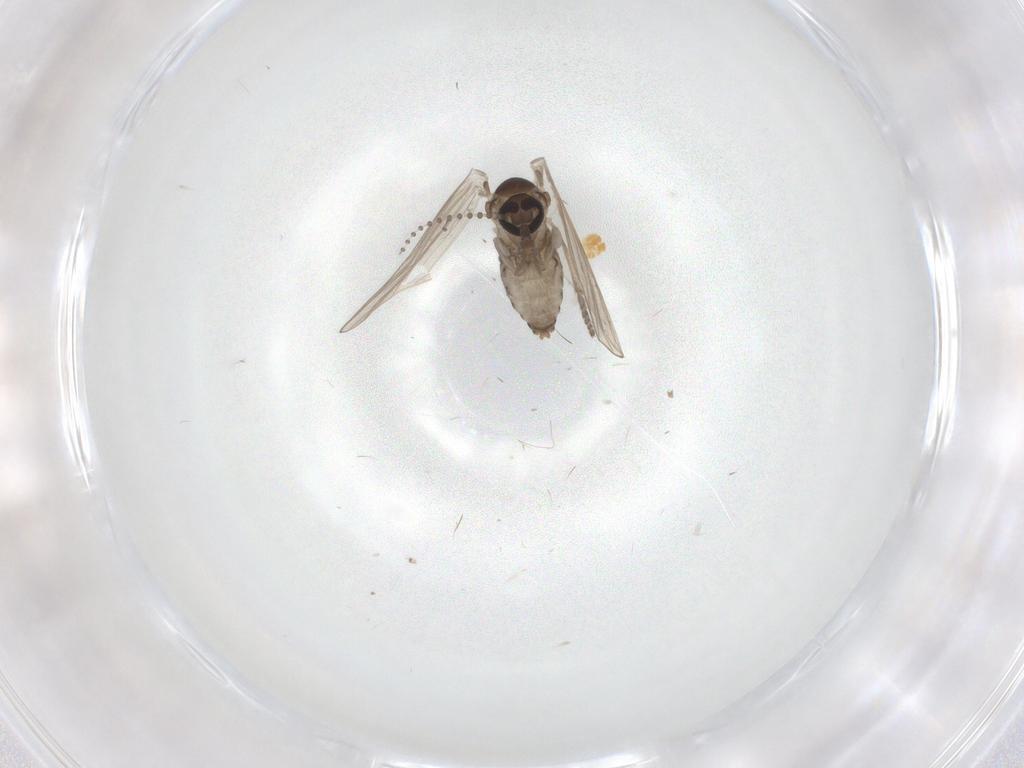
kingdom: Animalia
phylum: Arthropoda
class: Insecta
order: Diptera
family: Psychodidae
